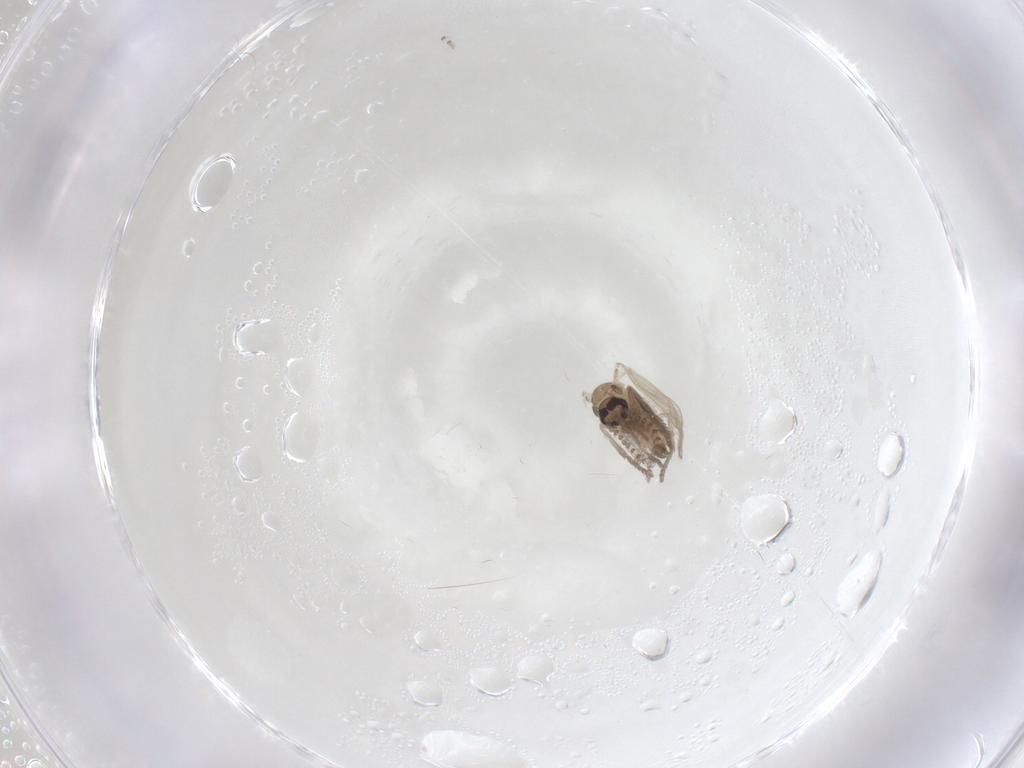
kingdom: Animalia
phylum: Arthropoda
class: Insecta
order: Diptera
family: Psychodidae
